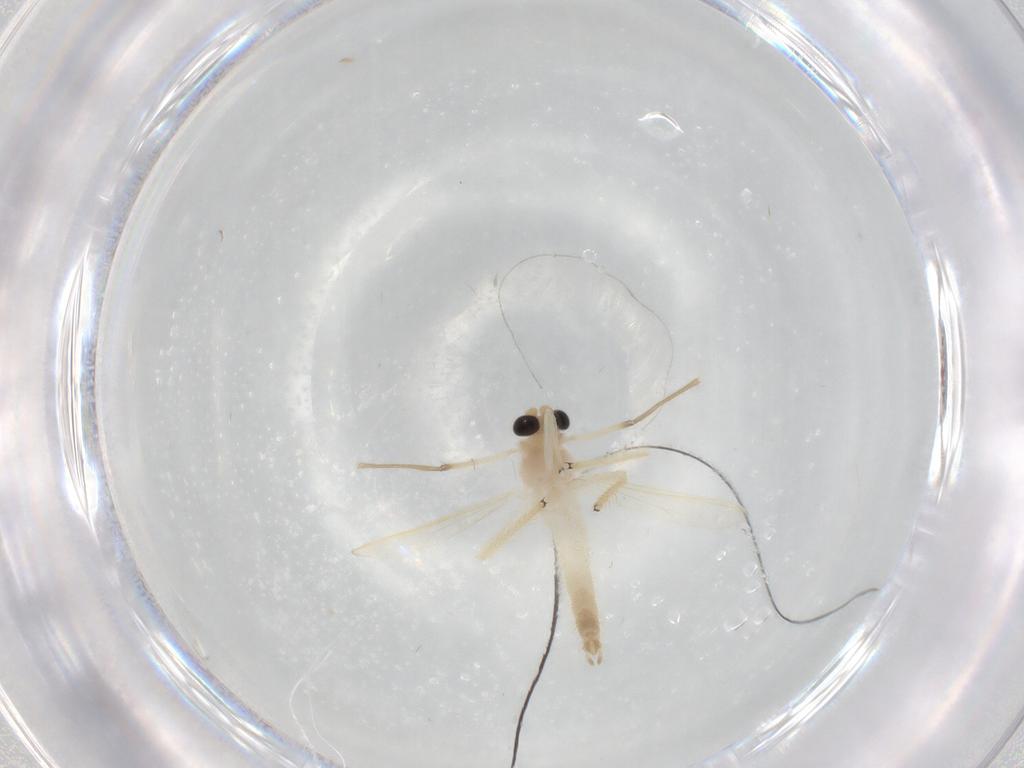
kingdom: Animalia
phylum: Arthropoda
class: Insecta
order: Diptera
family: Chironomidae
